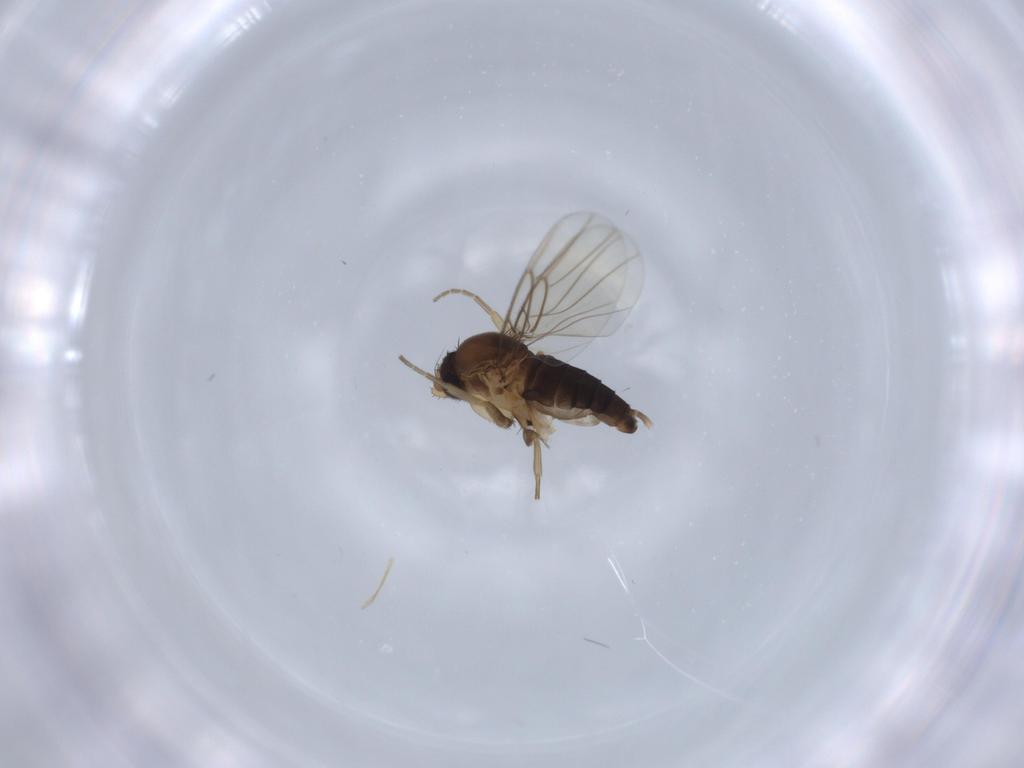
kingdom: Animalia
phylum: Arthropoda
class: Insecta
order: Diptera
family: Phoridae
